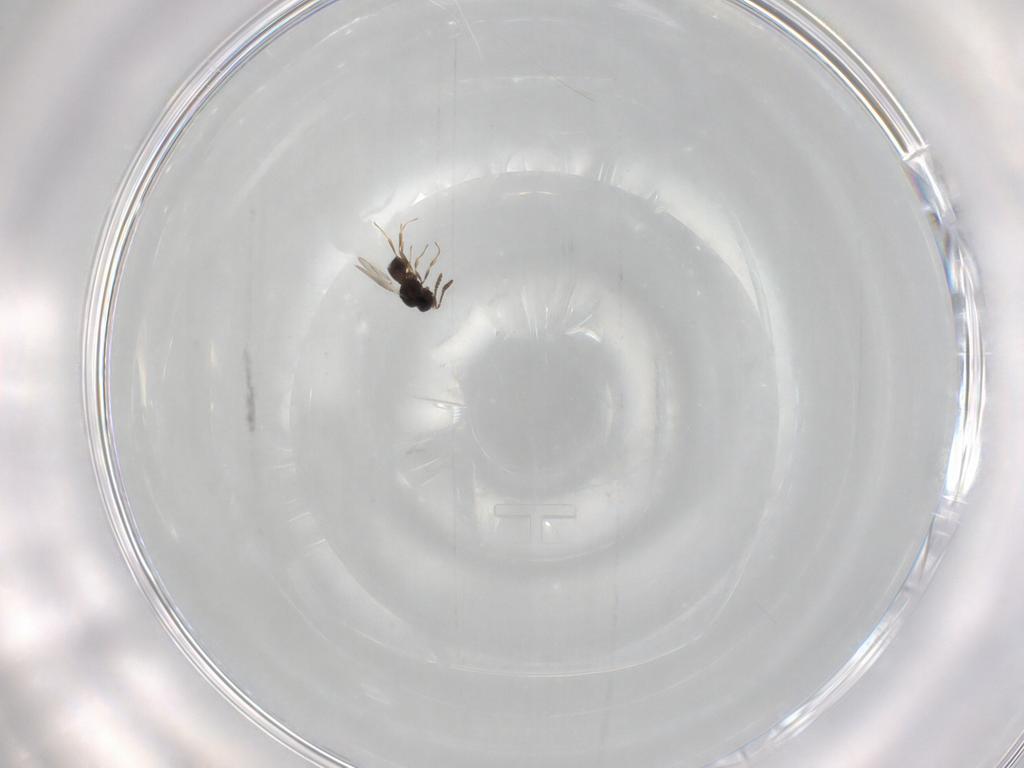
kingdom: Animalia
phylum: Arthropoda
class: Insecta
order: Hymenoptera
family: Scelionidae
